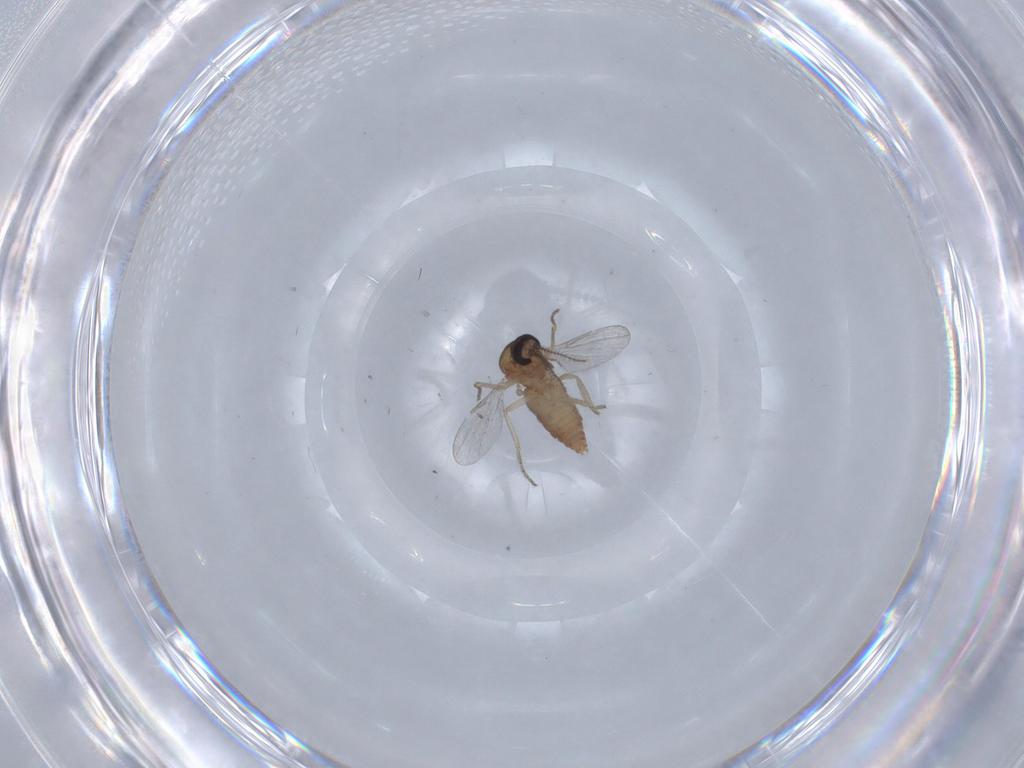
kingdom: Animalia
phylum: Arthropoda
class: Insecta
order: Diptera
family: Ceratopogonidae
